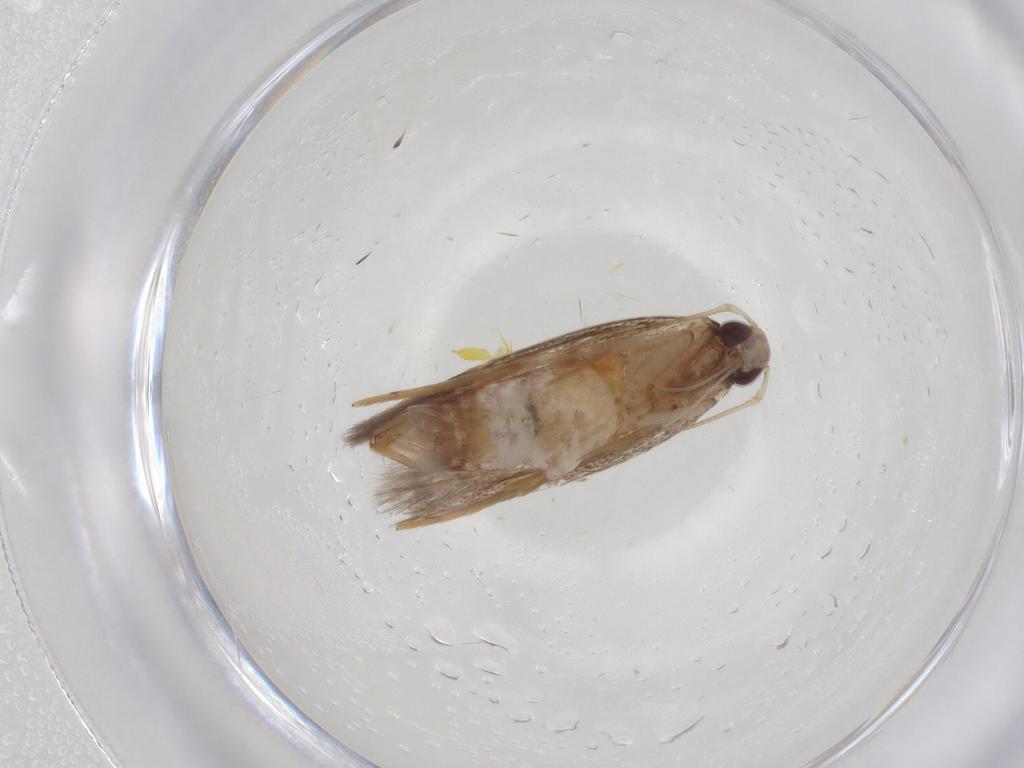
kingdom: Animalia
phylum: Arthropoda
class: Insecta
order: Lepidoptera
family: Cosmopterigidae
